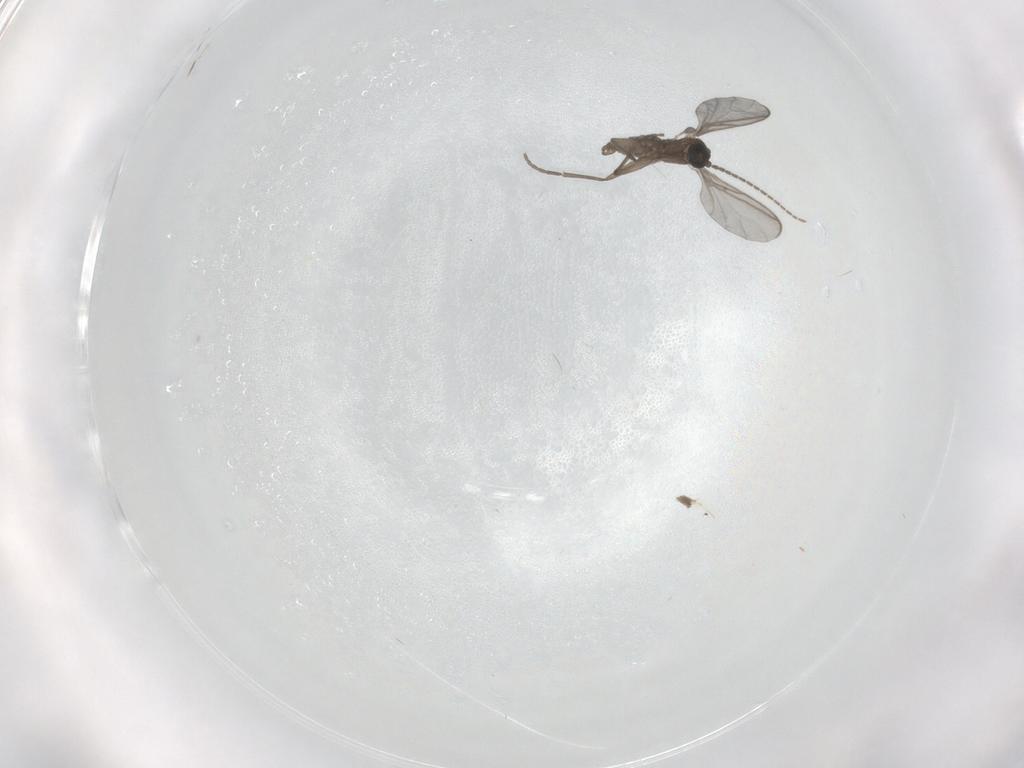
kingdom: Animalia
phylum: Arthropoda
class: Insecta
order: Diptera
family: Sciaridae
